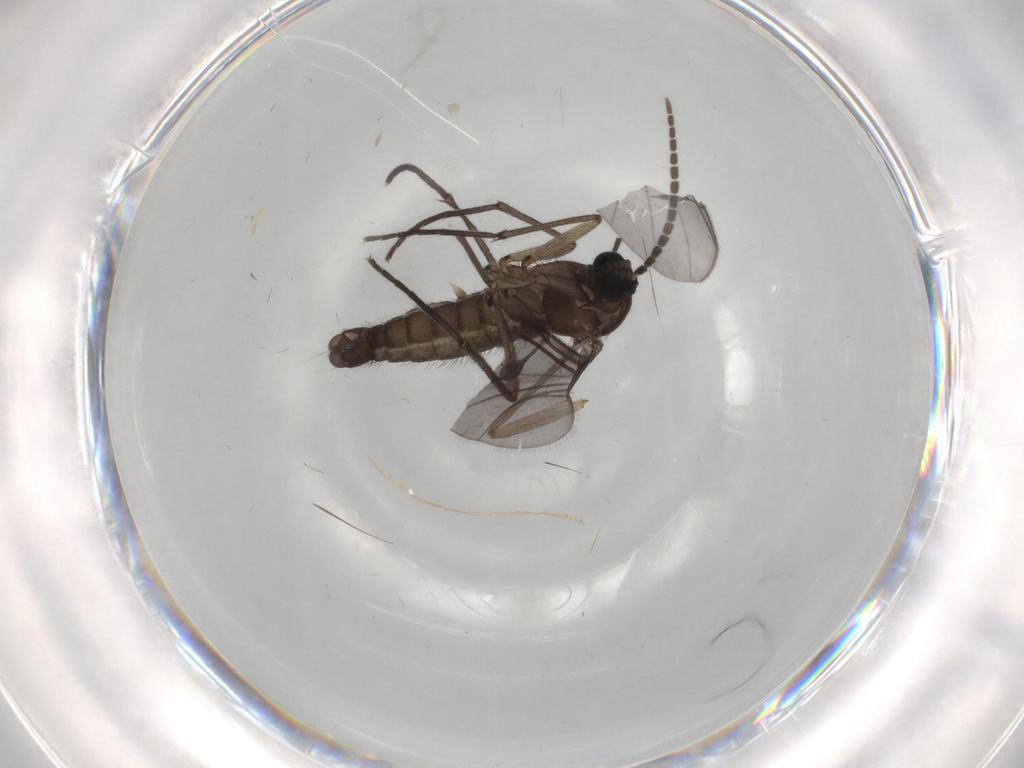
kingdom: Animalia
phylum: Arthropoda
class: Insecta
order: Diptera
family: Sciaridae
